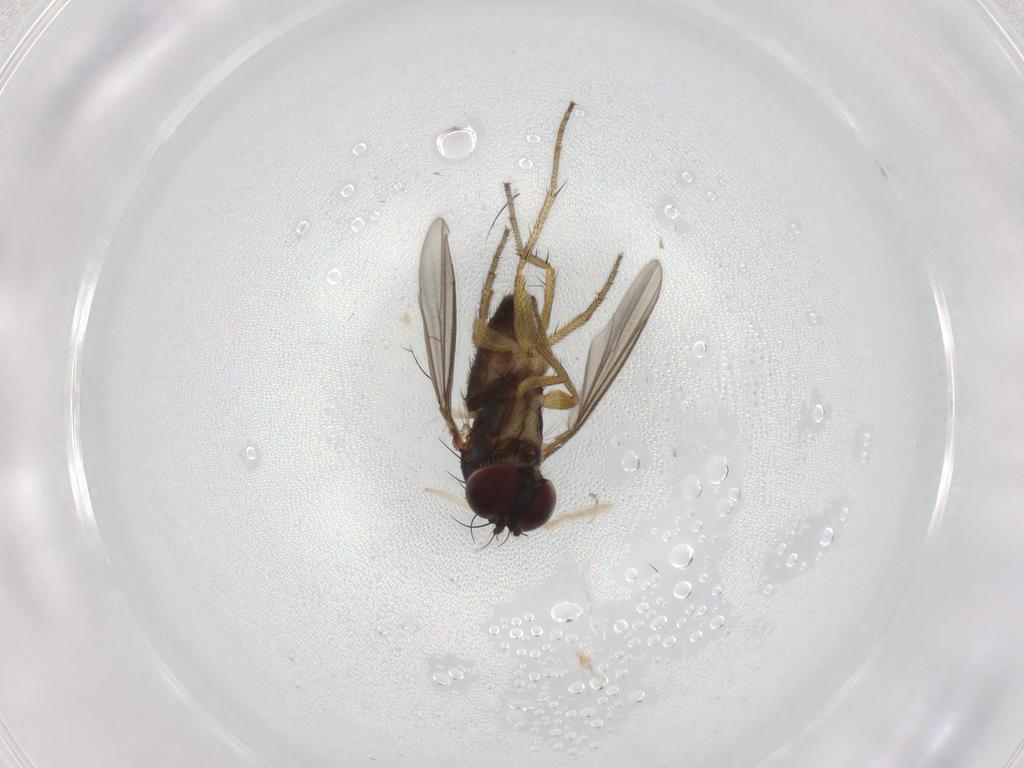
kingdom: Animalia
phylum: Arthropoda
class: Insecta
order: Diptera
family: Chironomidae
